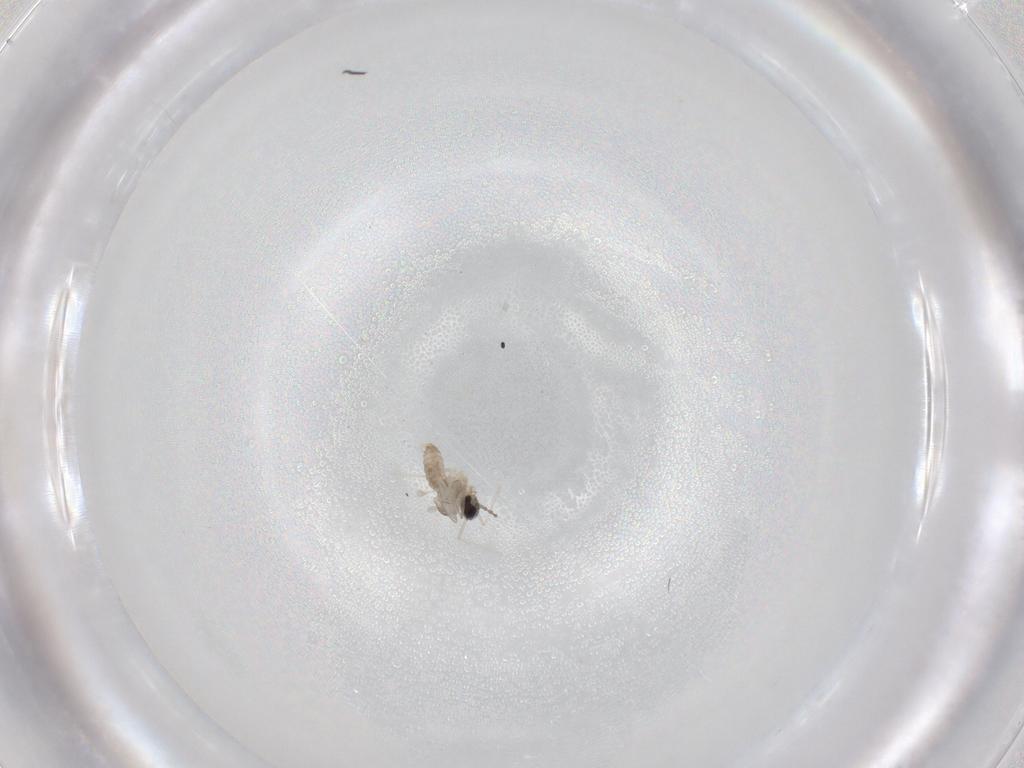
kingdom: Animalia
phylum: Arthropoda
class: Insecta
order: Diptera
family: Cecidomyiidae
